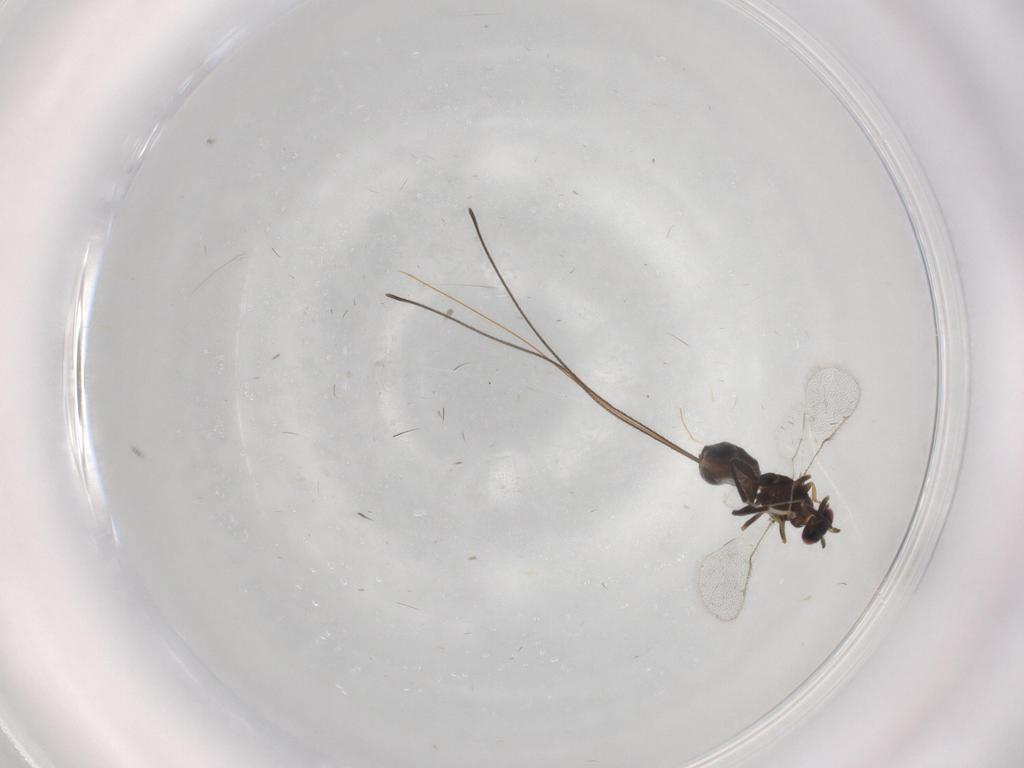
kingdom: Animalia
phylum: Arthropoda
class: Insecta
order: Hymenoptera
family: Torymidae
